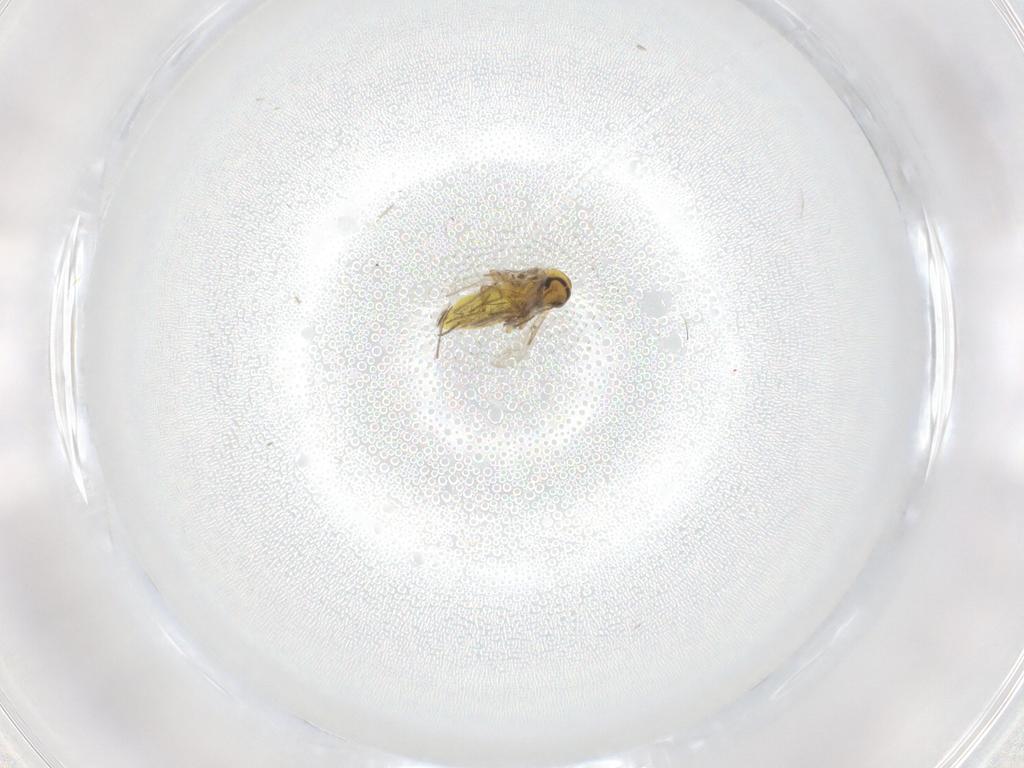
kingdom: Animalia
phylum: Arthropoda
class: Insecta
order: Diptera
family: Ceratopogonidae
